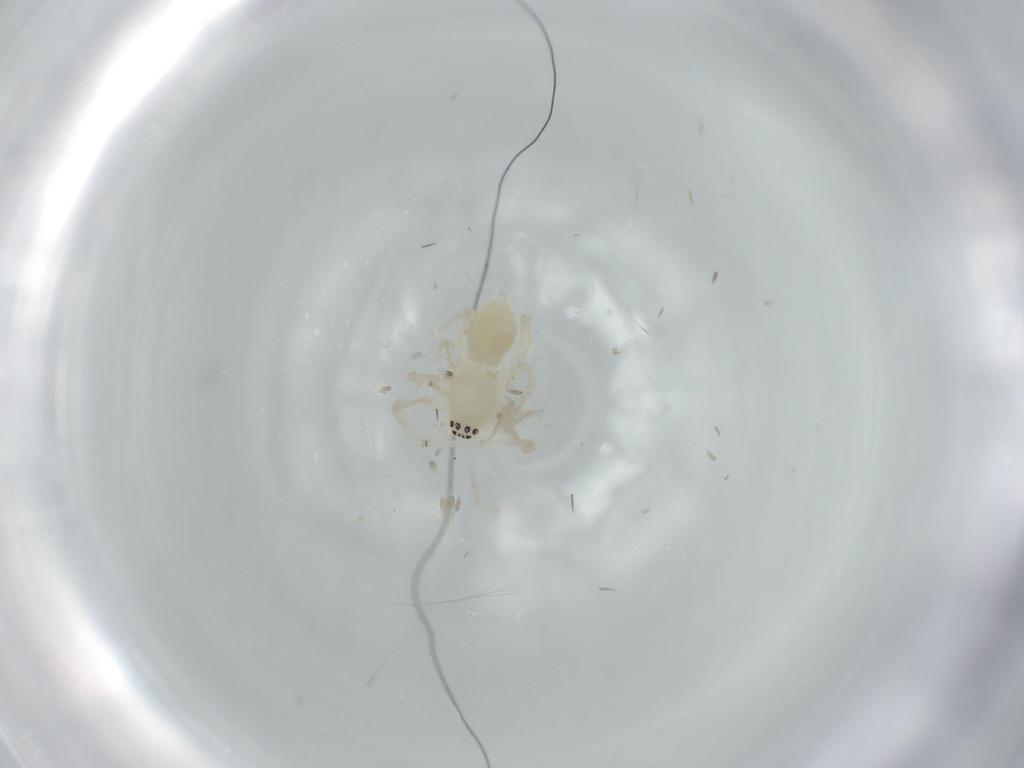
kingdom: Animalia
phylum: Arthropoda
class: Arachnida
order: Araneae
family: Anyphaenidae
